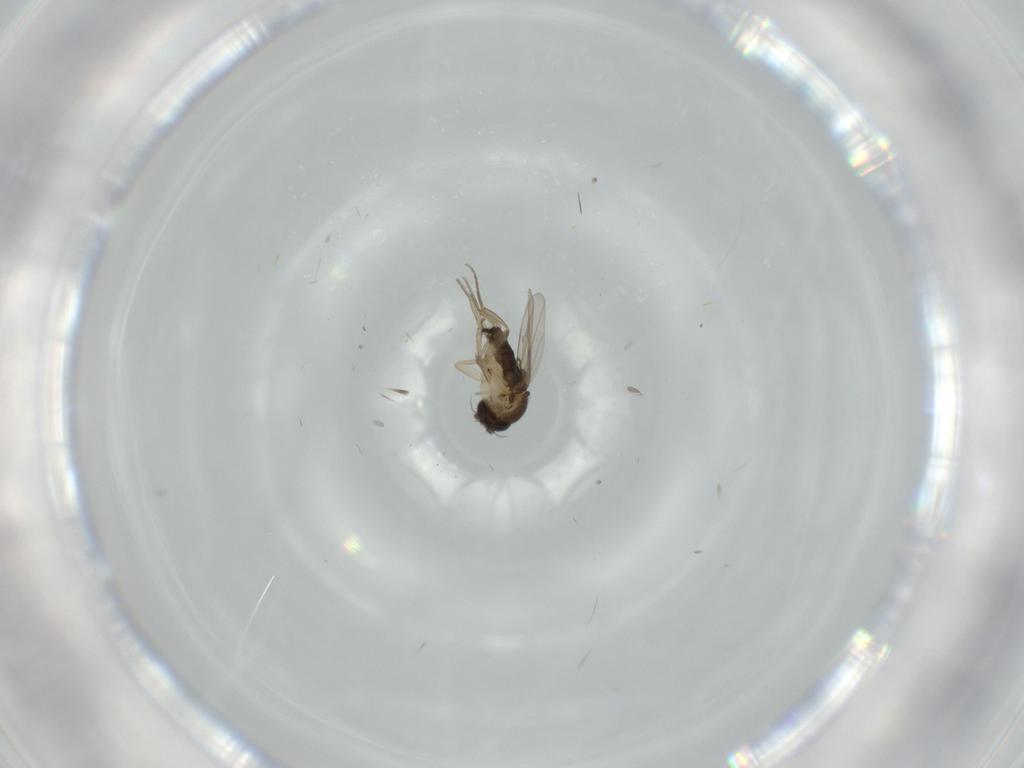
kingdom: Animalia
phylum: Arthropoda
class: Insecta
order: Diptera
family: Phoridae
